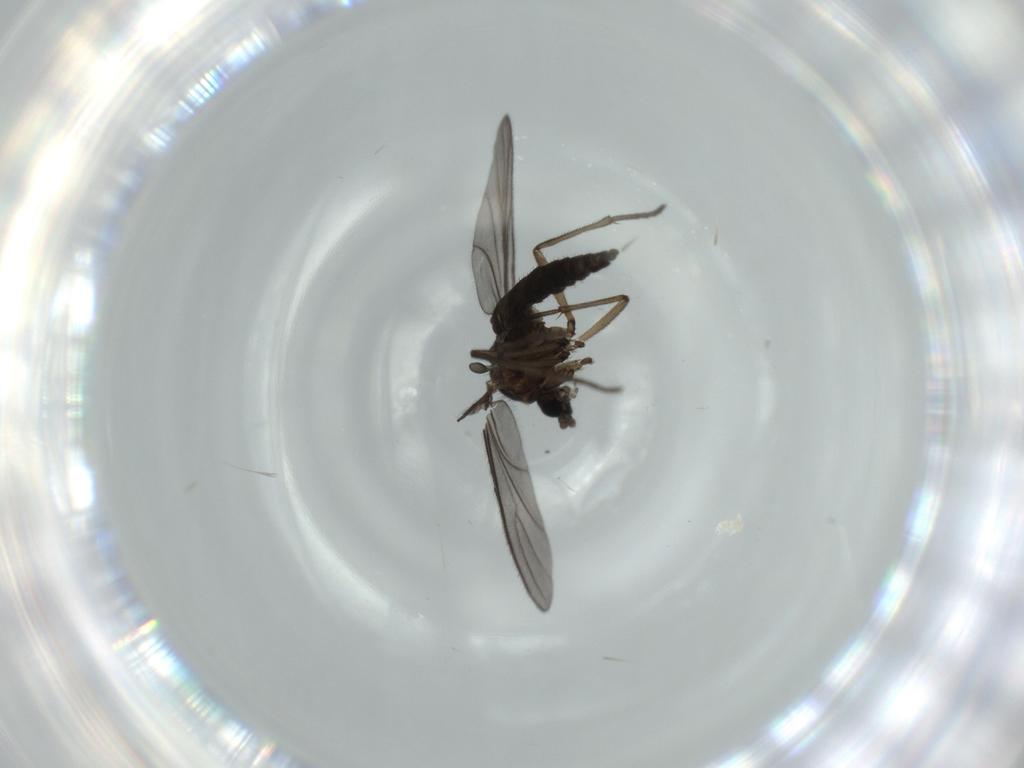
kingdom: Animalia
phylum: Arthropoda
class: Insecta
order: Diptera
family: Sciaridae
